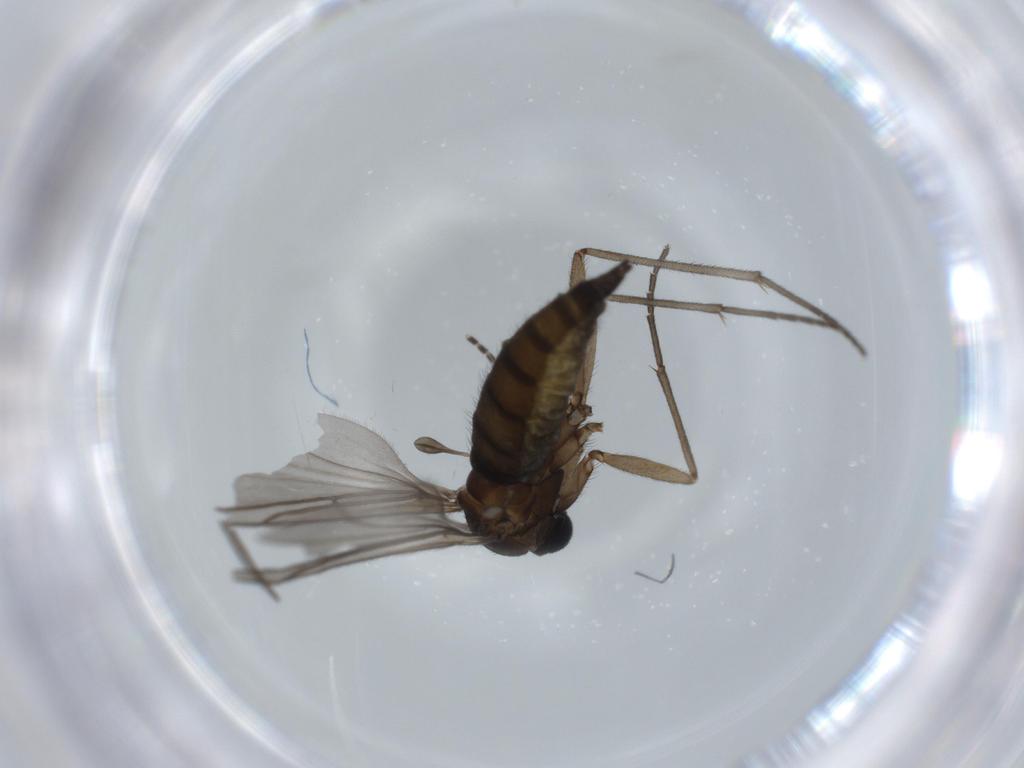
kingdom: Animalia
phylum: Arthropoda
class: Insecta
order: Diptera
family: Sciaridae
